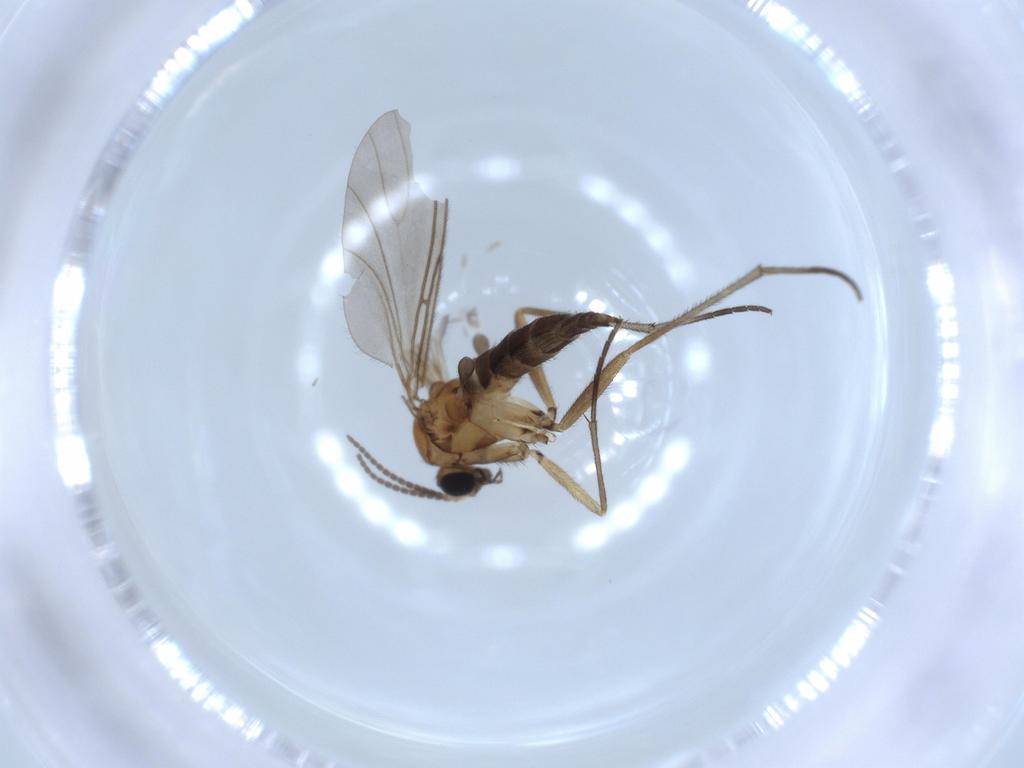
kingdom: Animalia
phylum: Arthropoda
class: Insecta
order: Diptera
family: Sciaridae
